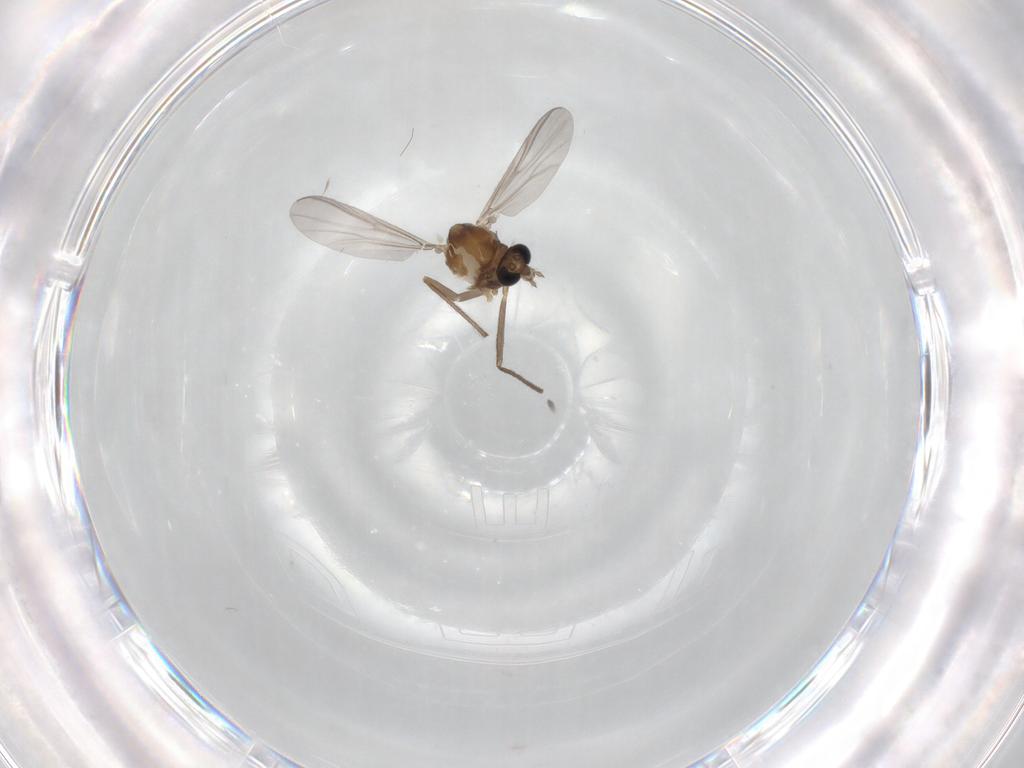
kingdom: Animalia
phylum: Arthropoda
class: Insecta
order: Diptera
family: Chironomidae
